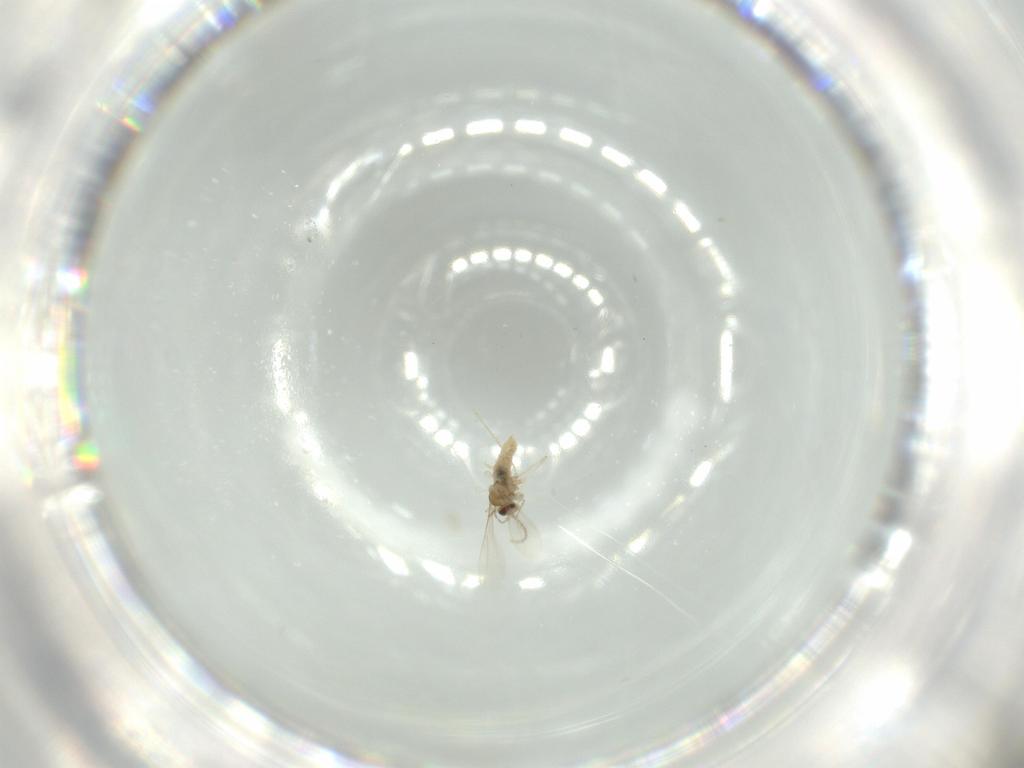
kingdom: Animalia
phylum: Arthropoda
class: Insecta
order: Diptera
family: Cecidomyiidae
